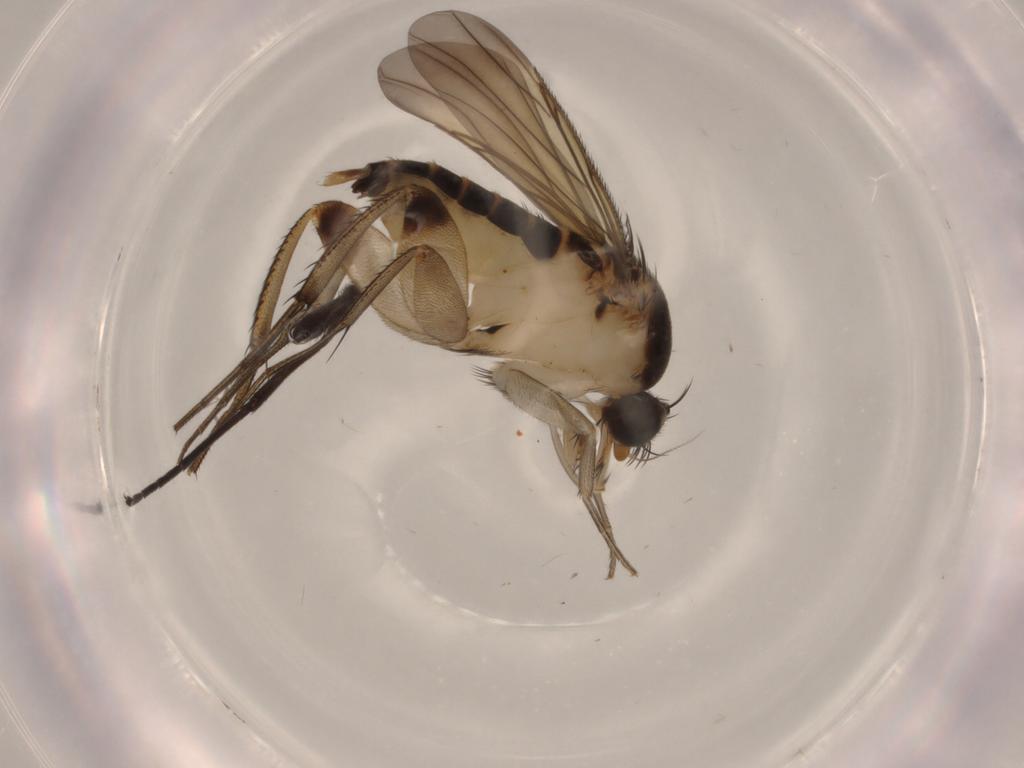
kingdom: Animalia
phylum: Arthropoda
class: Insecta
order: Diptera
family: Phoridae
